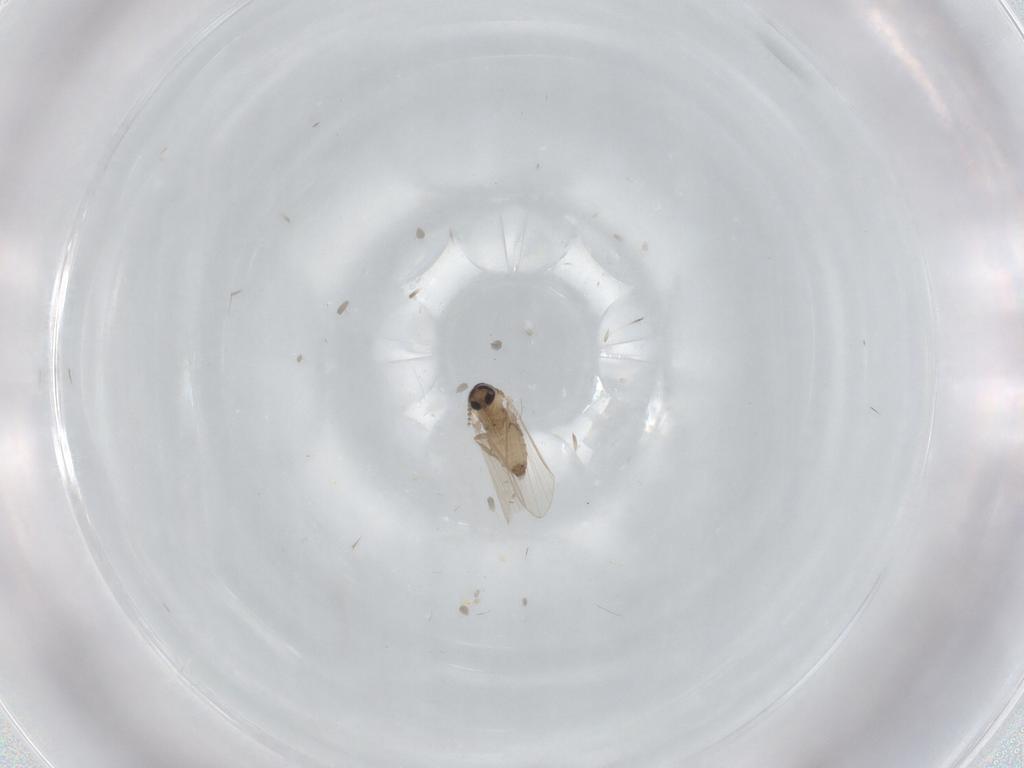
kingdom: Animalia
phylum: Arthropoda
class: Insecta
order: Diptera
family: Psychodidae
